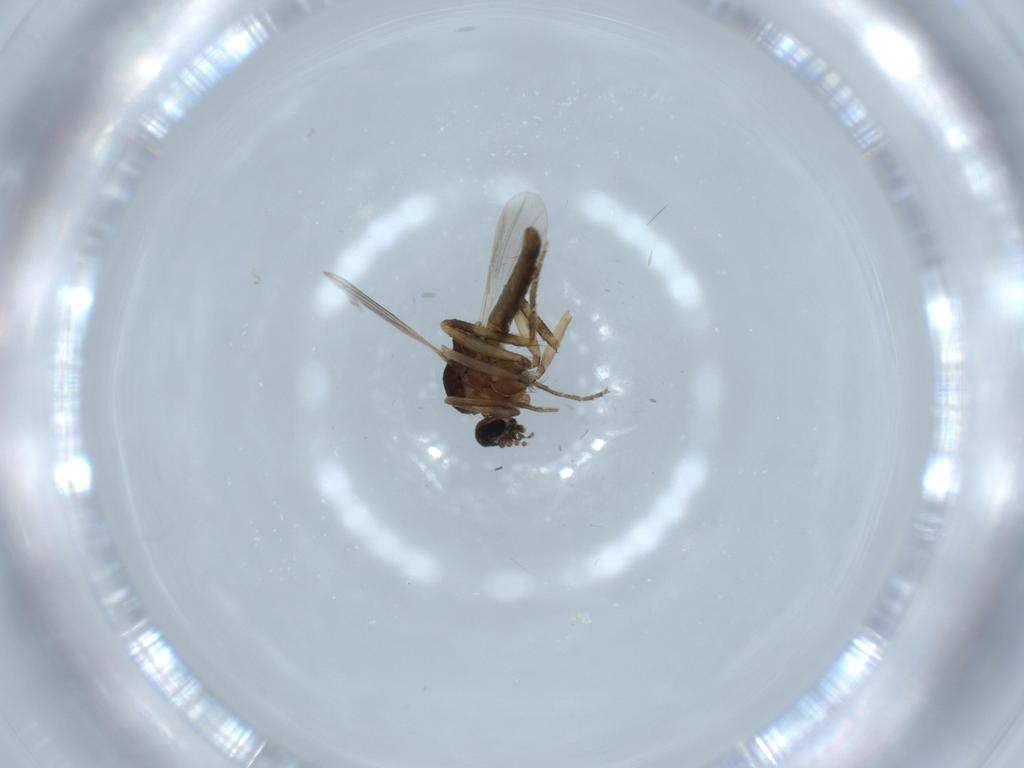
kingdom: Animalia
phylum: Arthropoda
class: Insecta
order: Diptera
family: Ceratopogonidae
